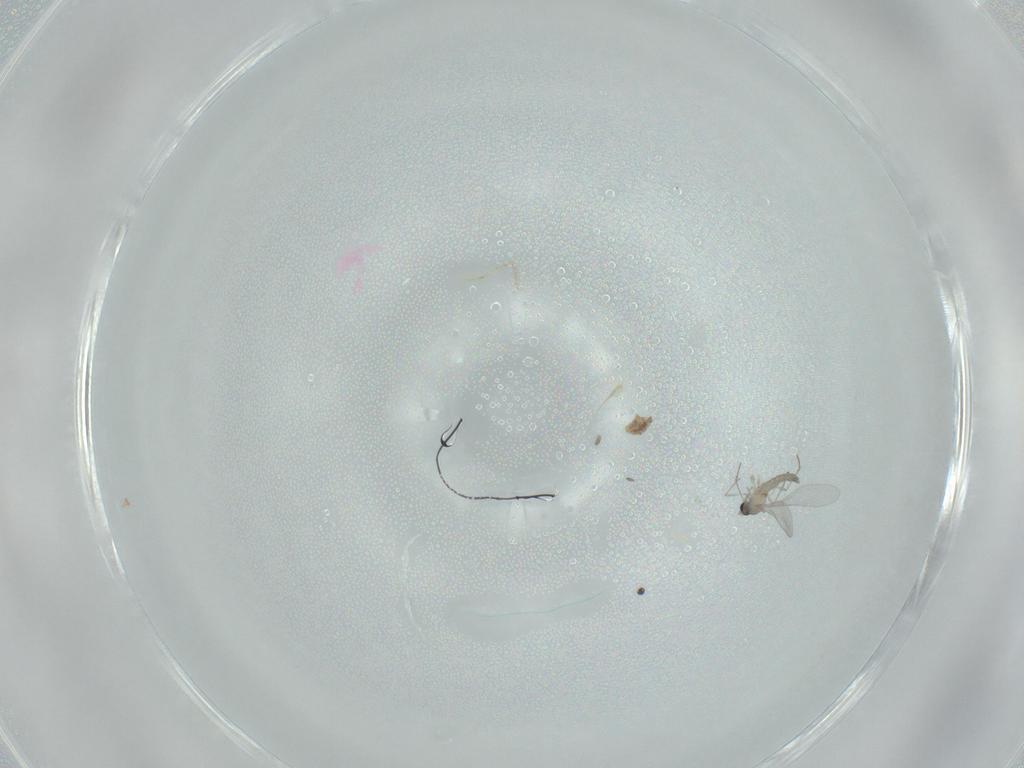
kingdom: Animalia
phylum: Arthropoda
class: Insecta
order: Diptera
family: Cecidomyiidae
